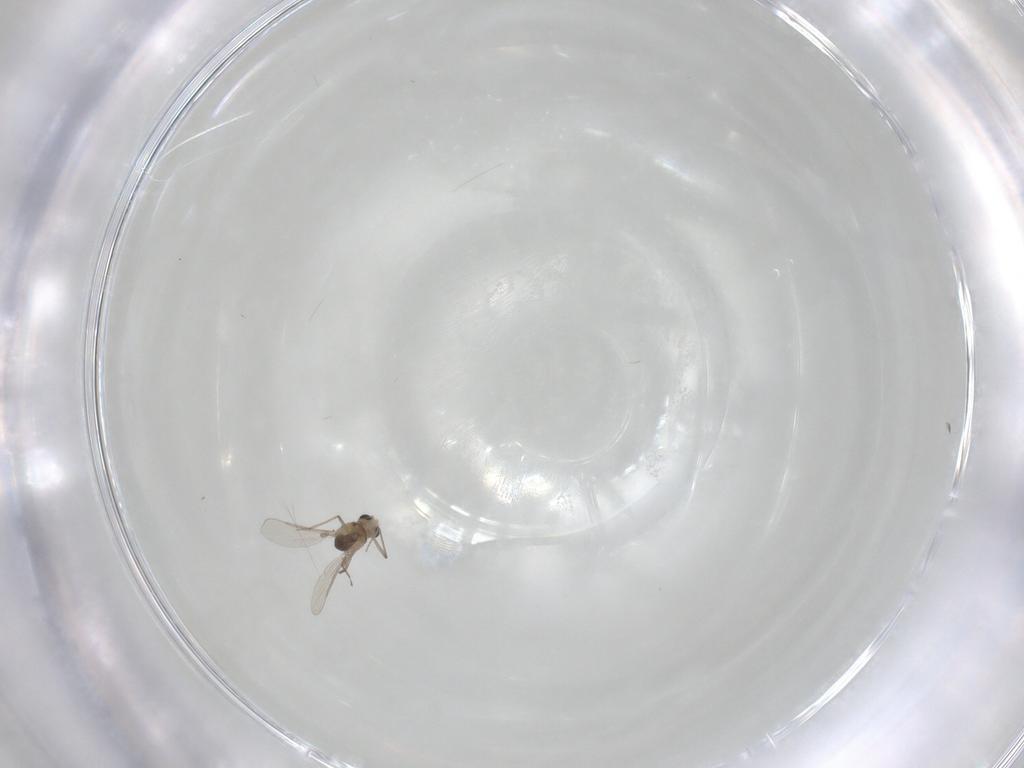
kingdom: Animalia
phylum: Arthropoda
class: Insecta
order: Diptera
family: Chironomidae
